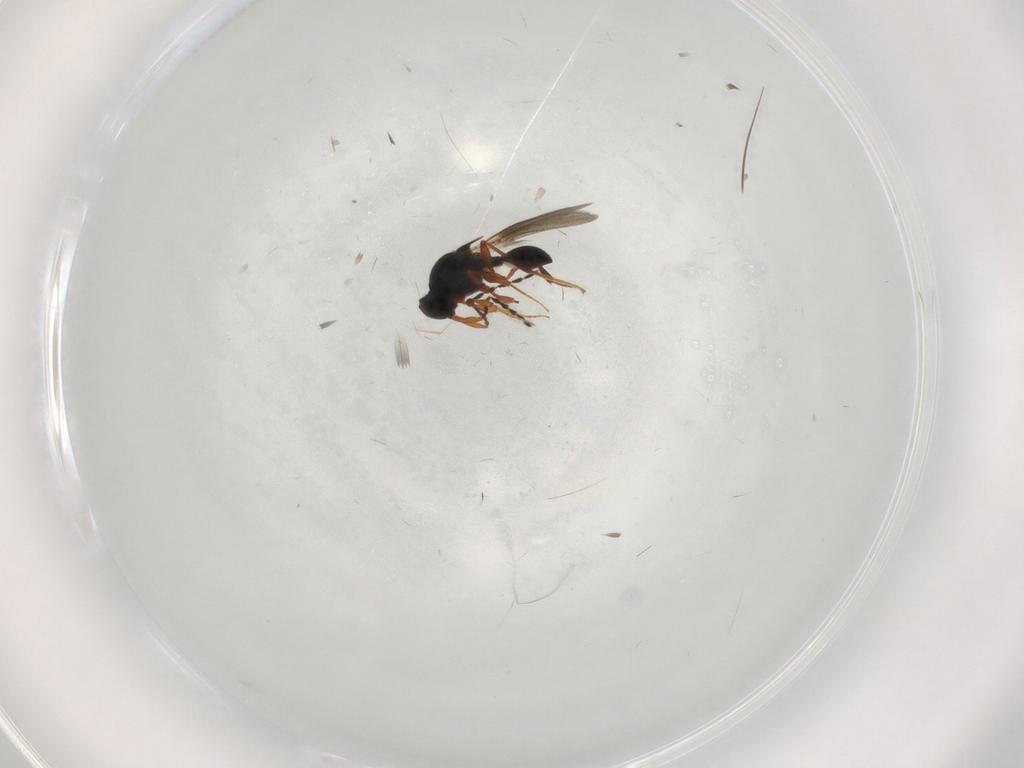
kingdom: Animalia
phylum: Arthropoda
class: Insecta
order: Hymenoptera
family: Platygastridae
